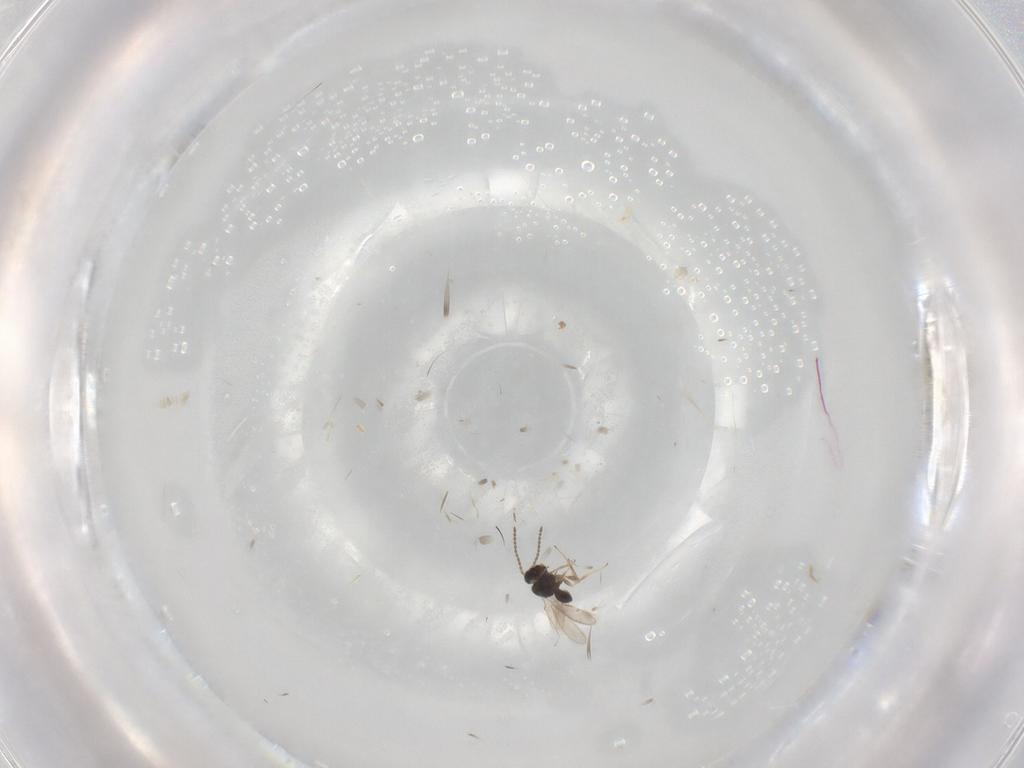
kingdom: Animalia
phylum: Arthropoda
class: Insecta
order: Hymenoptera
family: Scelionidae
